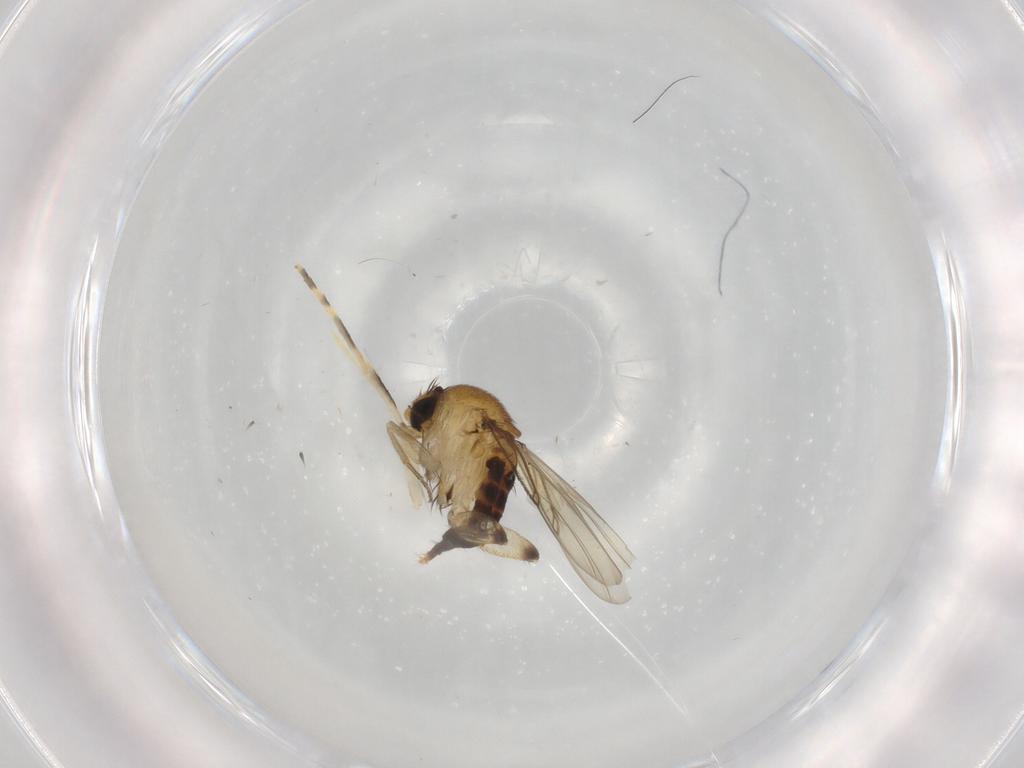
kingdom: Animalia
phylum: Arthropoda
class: Insecta
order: Diptera
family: Phoridae
